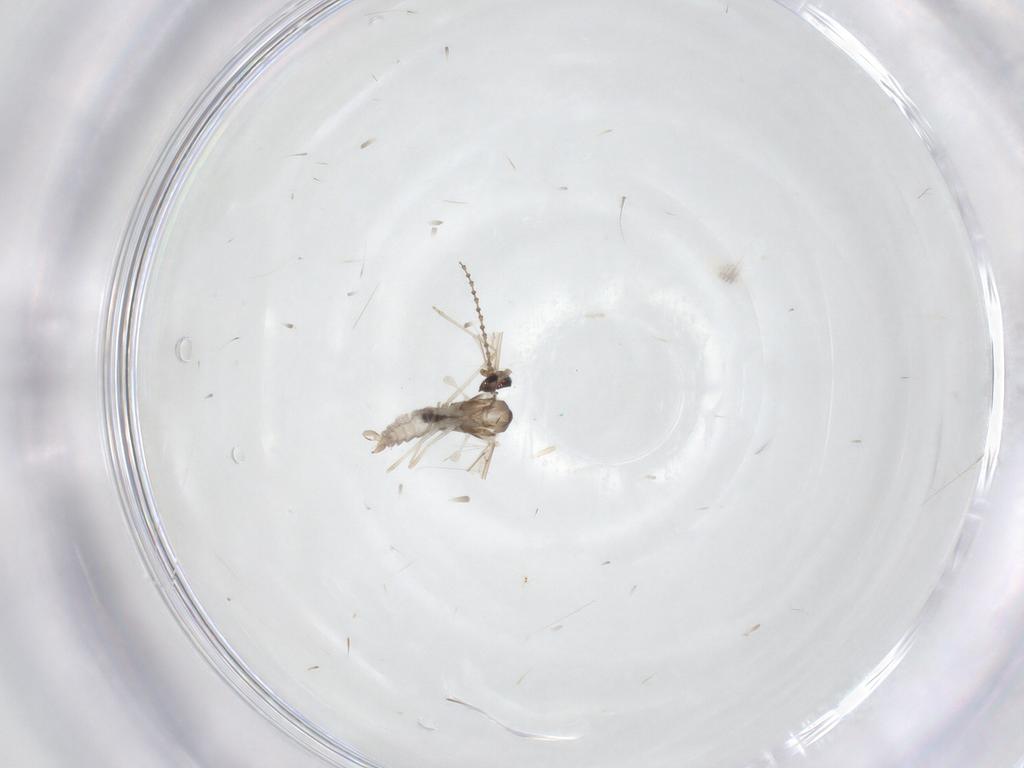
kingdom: Animalia
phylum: Arthropoda
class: Insecta
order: Diptera
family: Cecidomyiidae
